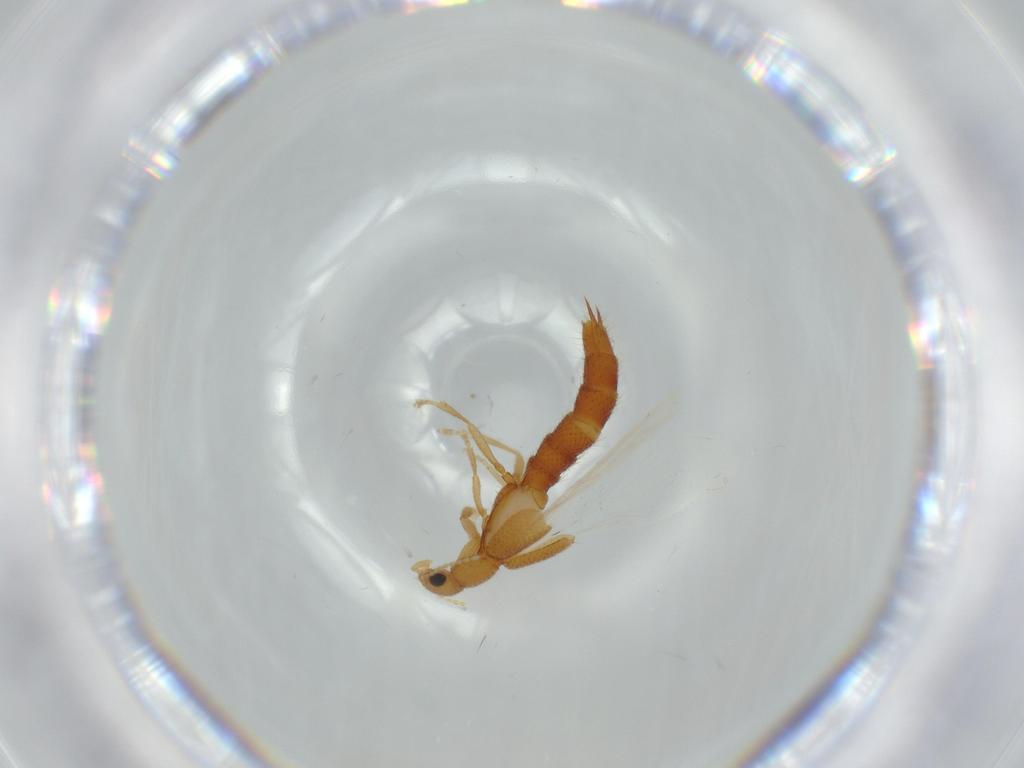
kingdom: Animalia
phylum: Arthropoda
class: Insecta
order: Coleoptera
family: Staphylinidae
